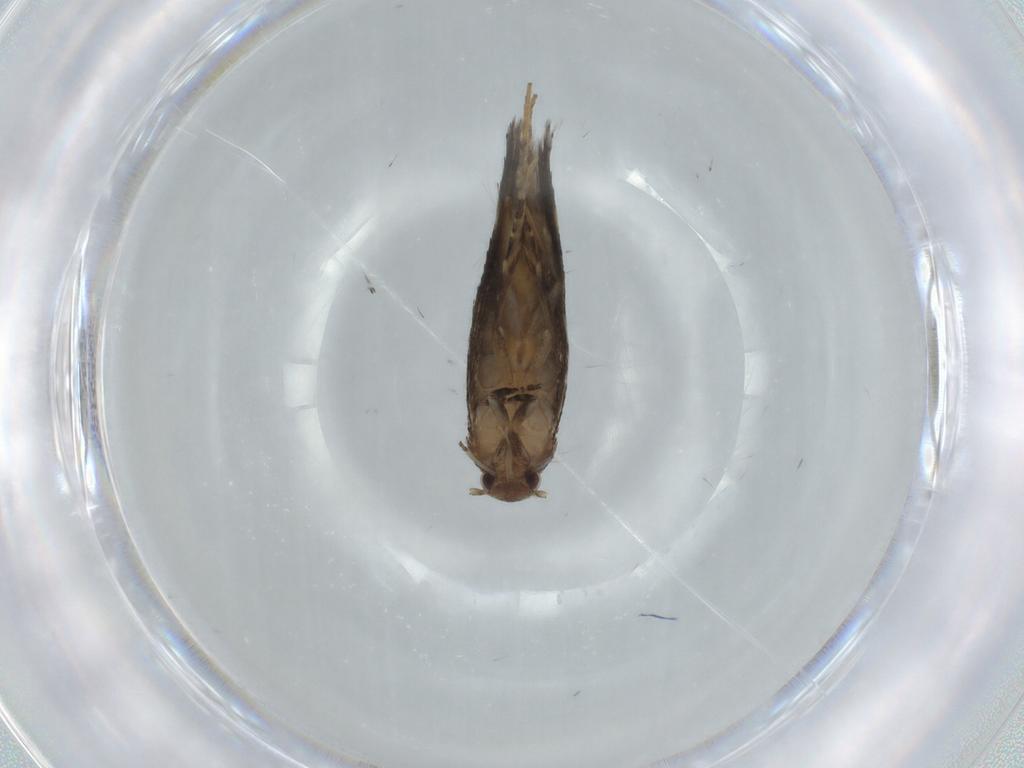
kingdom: Animalia
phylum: Arthropoda
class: Insecta
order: Lepidoptera
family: Elachistidae
